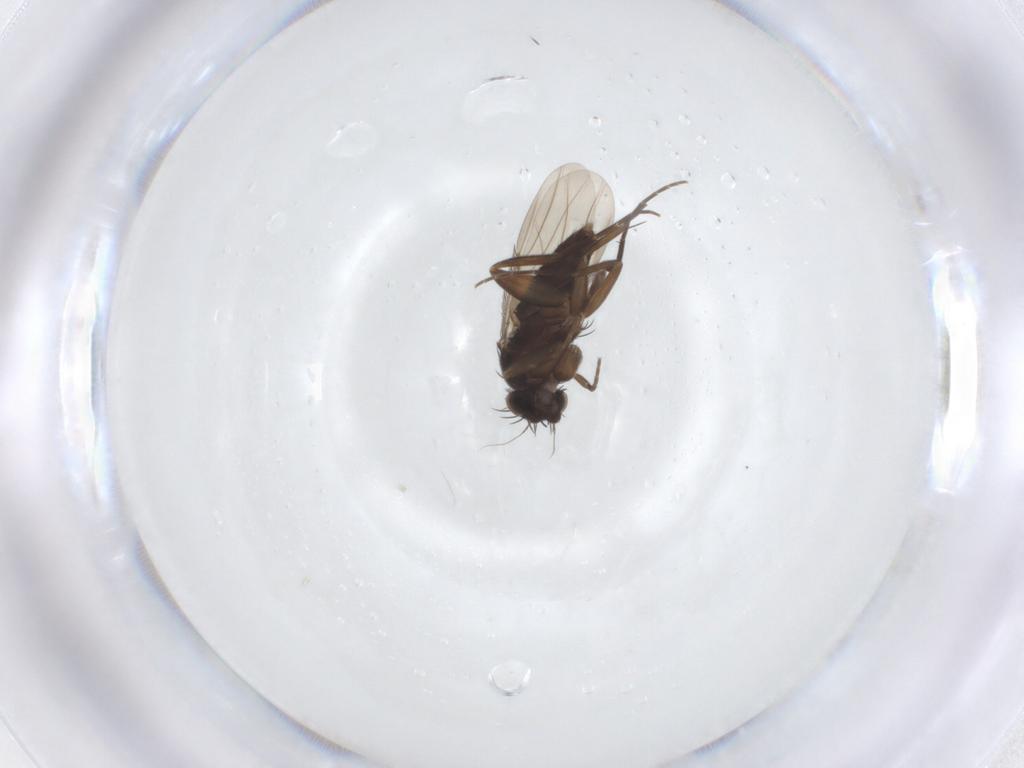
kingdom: Animalia
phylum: Arthropoda
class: Insecta
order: Diptera
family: Phoridae
